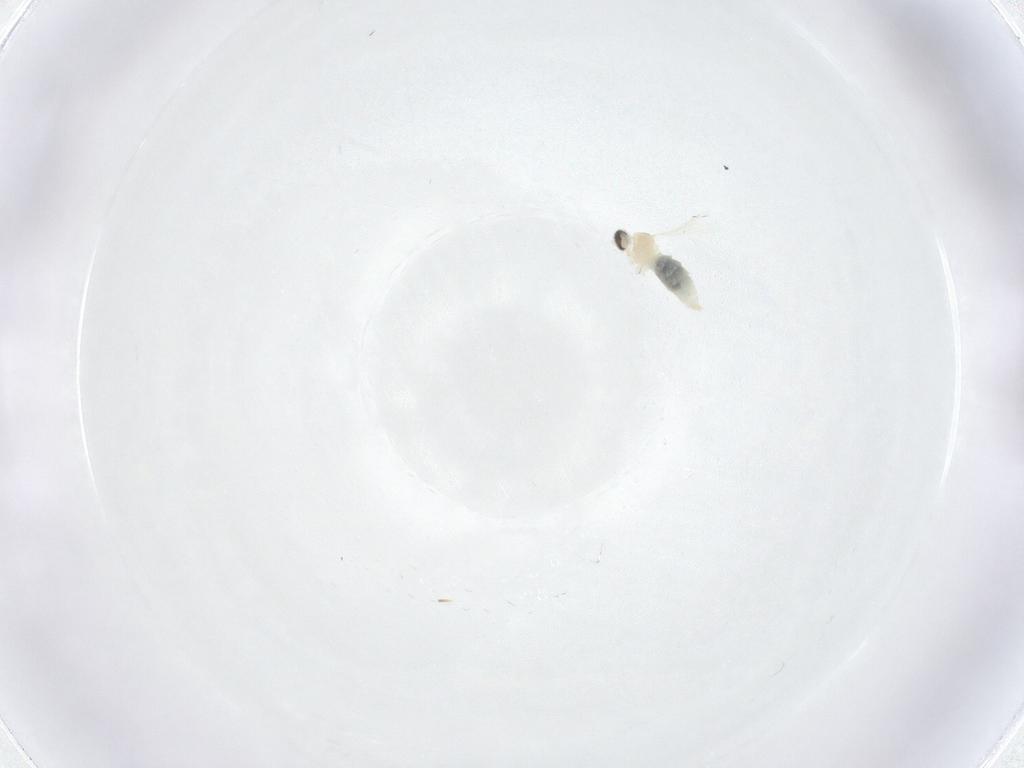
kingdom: Animalia
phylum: Arthropoda
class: Insecta
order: Diptera
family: Cecidomyiidae
